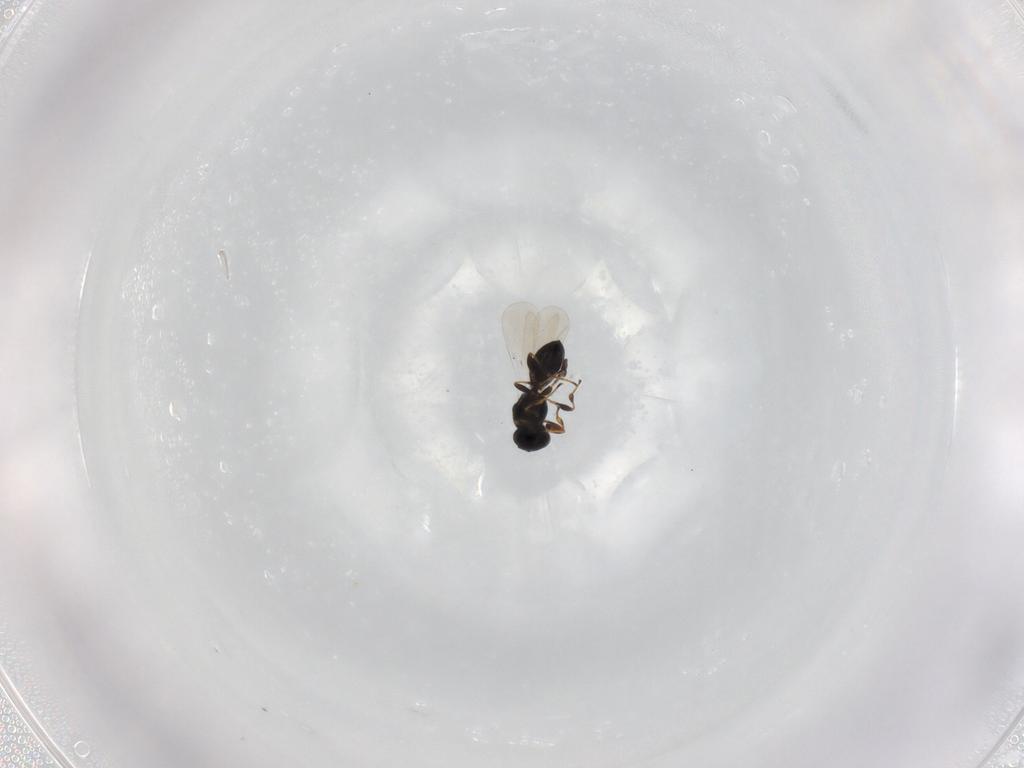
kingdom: Animalia
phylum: Arthropoda
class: Insecta
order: Hymenoptera
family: Platygastridae
